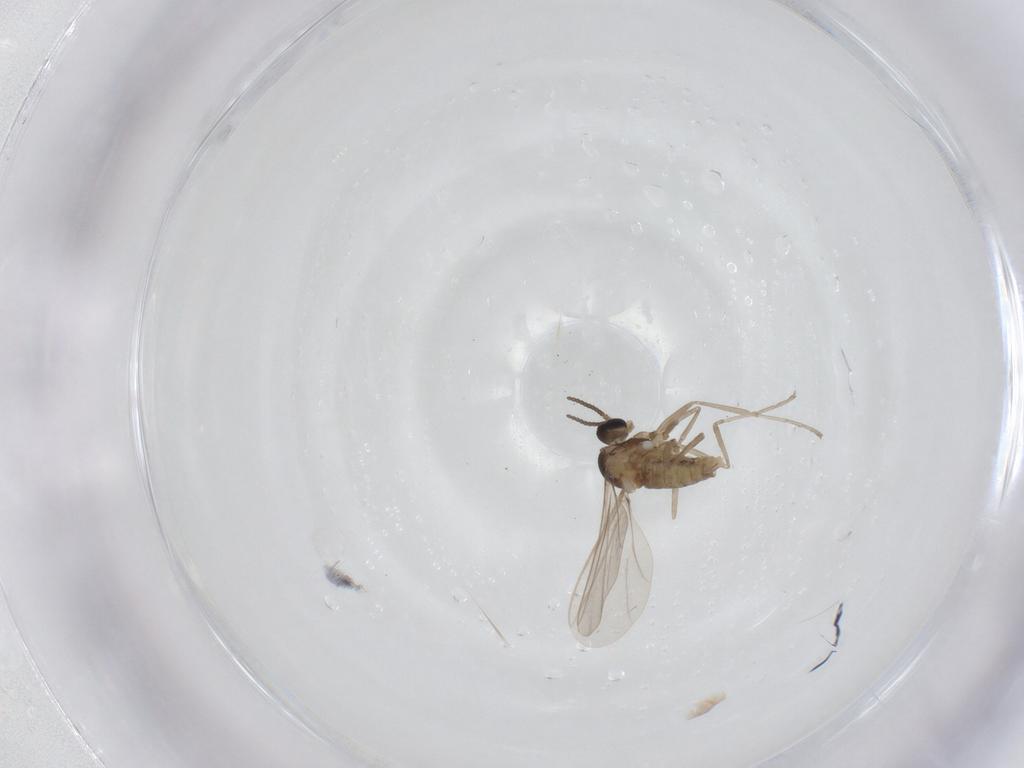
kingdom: Animalia
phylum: Arthropoda
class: Insecta
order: Diptera
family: Cecidomyiidae
